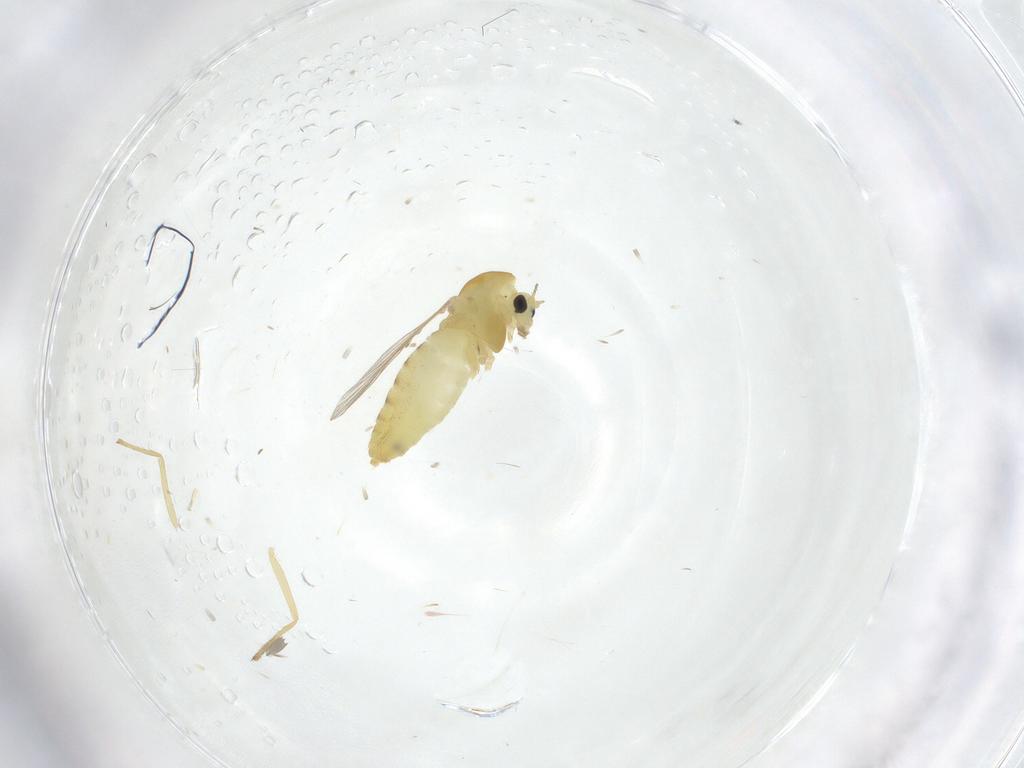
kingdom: Animalia
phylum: Arthropoda
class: Insecta
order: Diptera
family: Chironomidae
